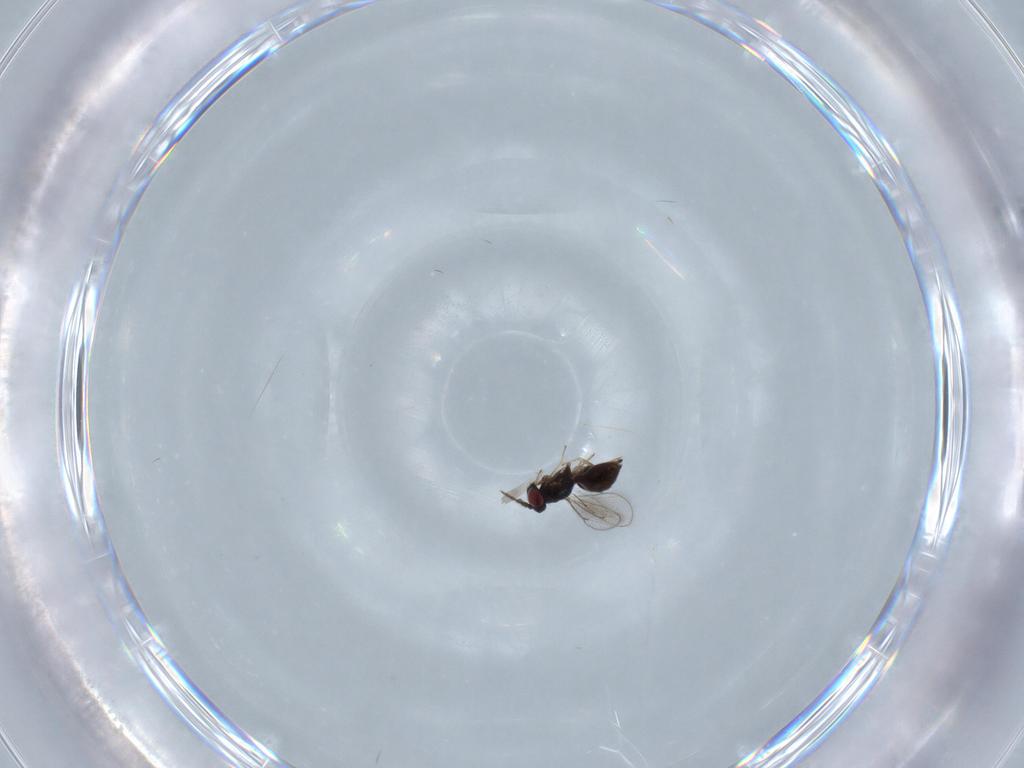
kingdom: Animalia
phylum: Arthropoda
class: Insecta
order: Hymenoptera
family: Eulophidae
